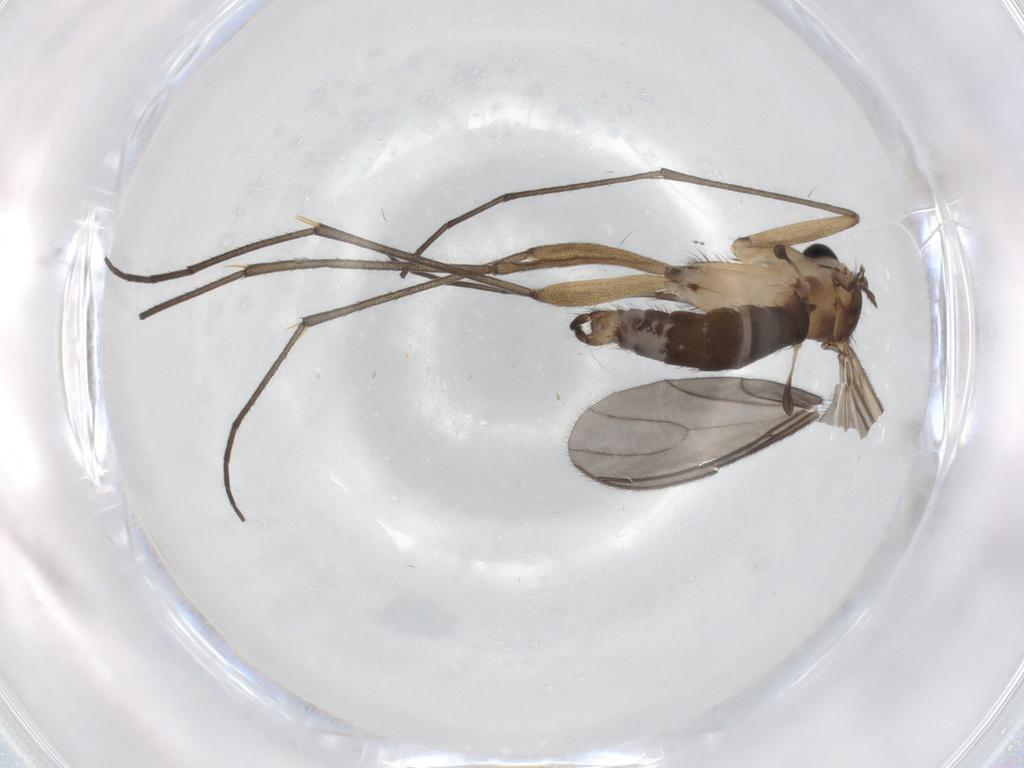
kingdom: Animalia
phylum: Arthropoda
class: Insecta
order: Diptera
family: Sciaridae
